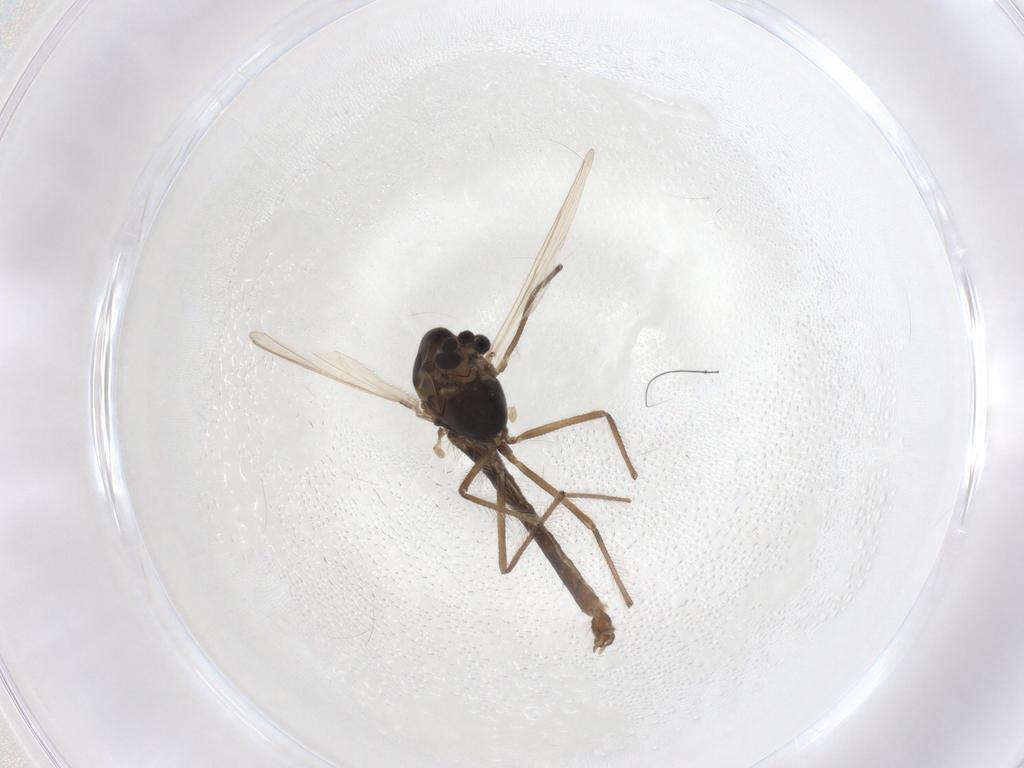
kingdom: Animalia
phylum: Arthropoda
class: Insecta
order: Diptera
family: Chironomidae
